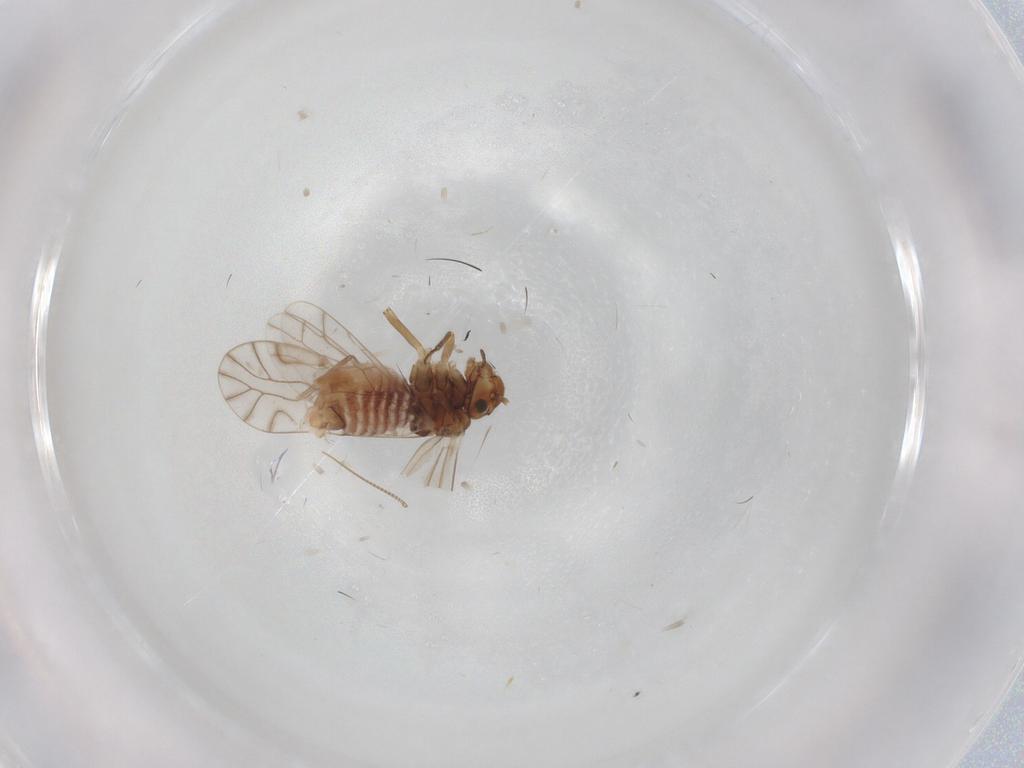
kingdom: Animalia
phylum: Arthropoda
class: Insecta
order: Psocodea
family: Lachesillidae
